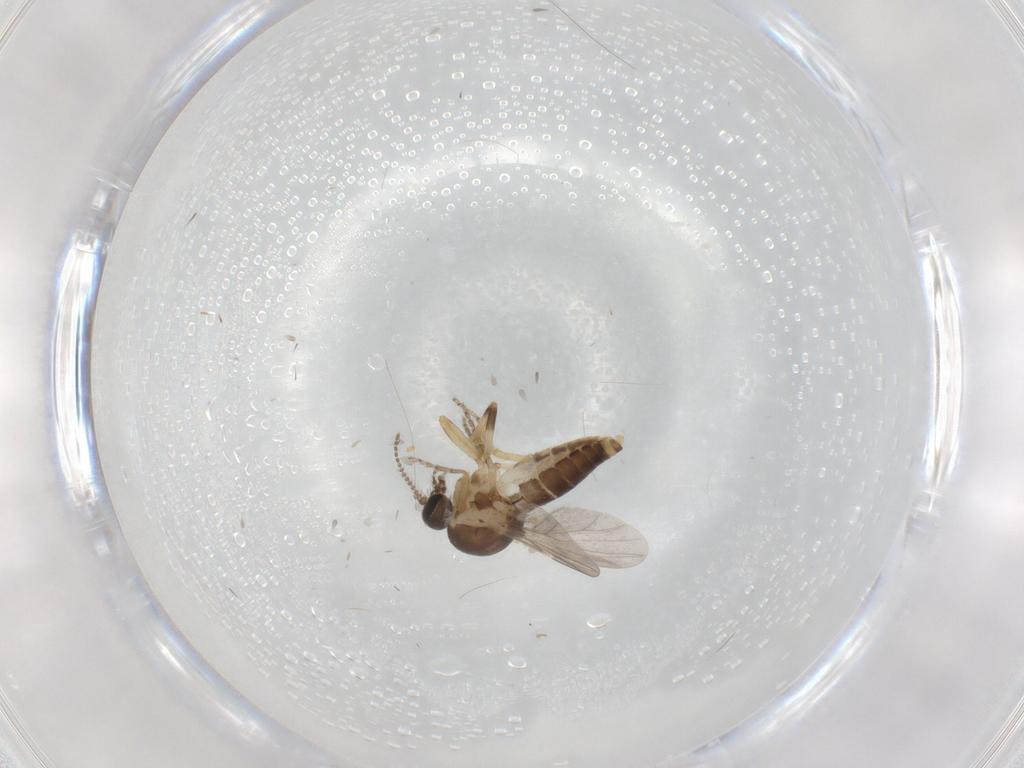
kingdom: Animalia
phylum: Arthropoda
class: Insecta
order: Diptera
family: Ceratopogonidae
